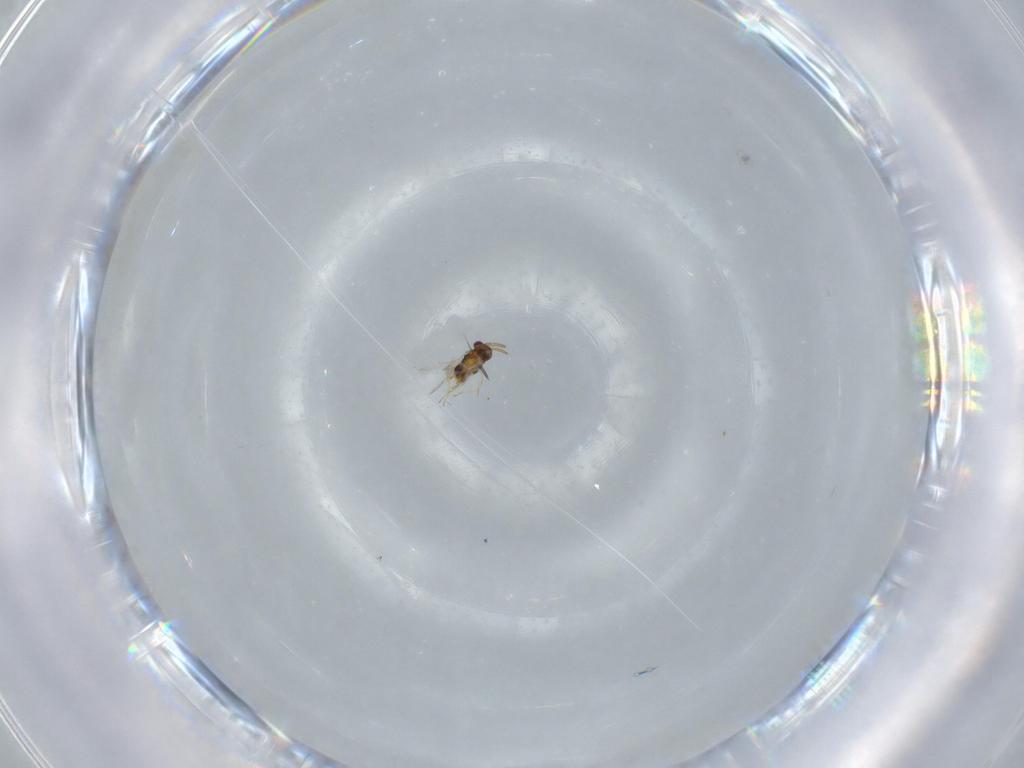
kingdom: Animalia
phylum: Arthropoda
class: Insecta
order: Hymenoptera
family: Aphelinidae
